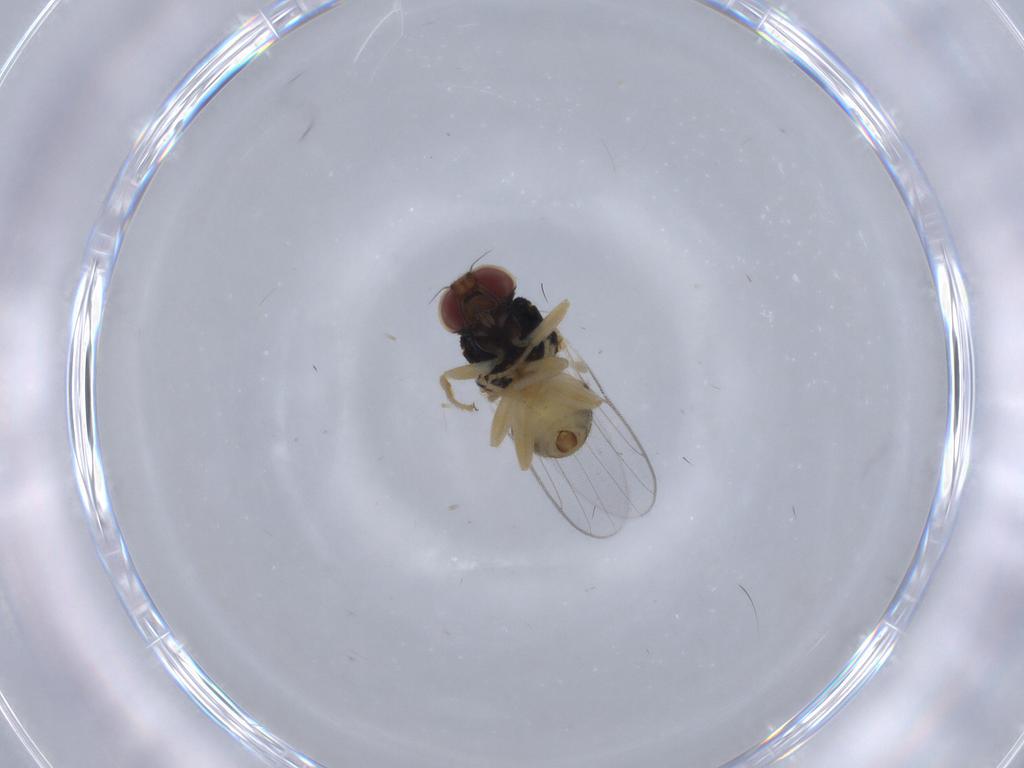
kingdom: Animalia
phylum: Arthropoda
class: Insecta
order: Diptera
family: Chloropidae
